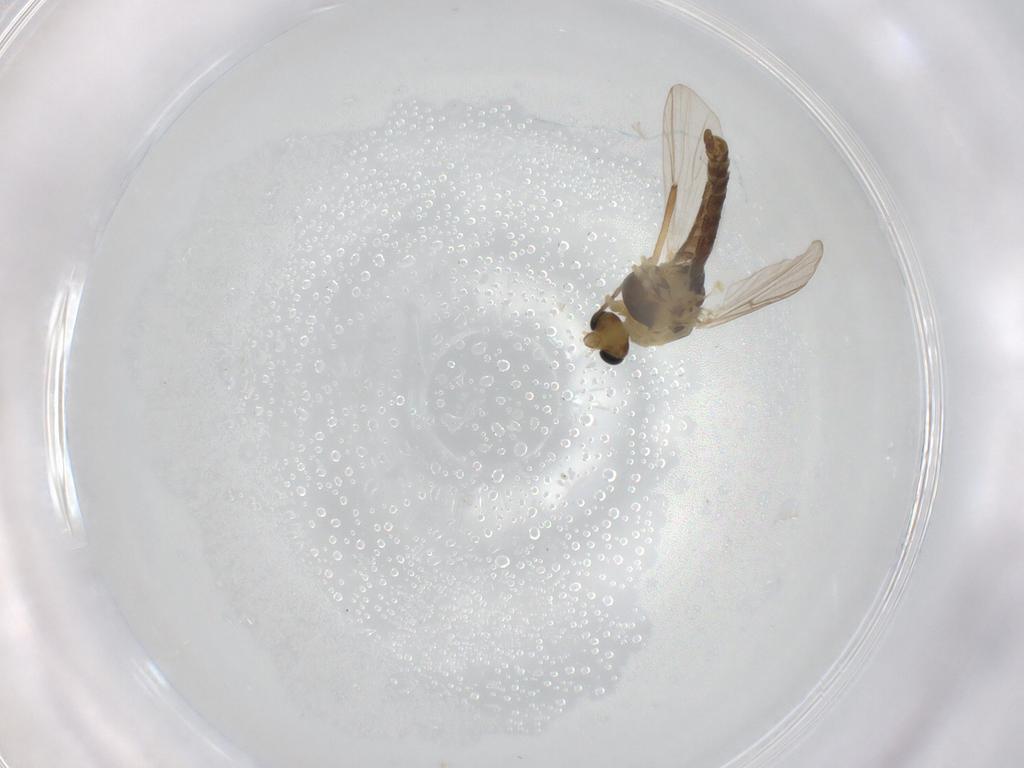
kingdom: Animalia
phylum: Arthropoda
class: Insecta
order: Diptera
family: Chironomidae
